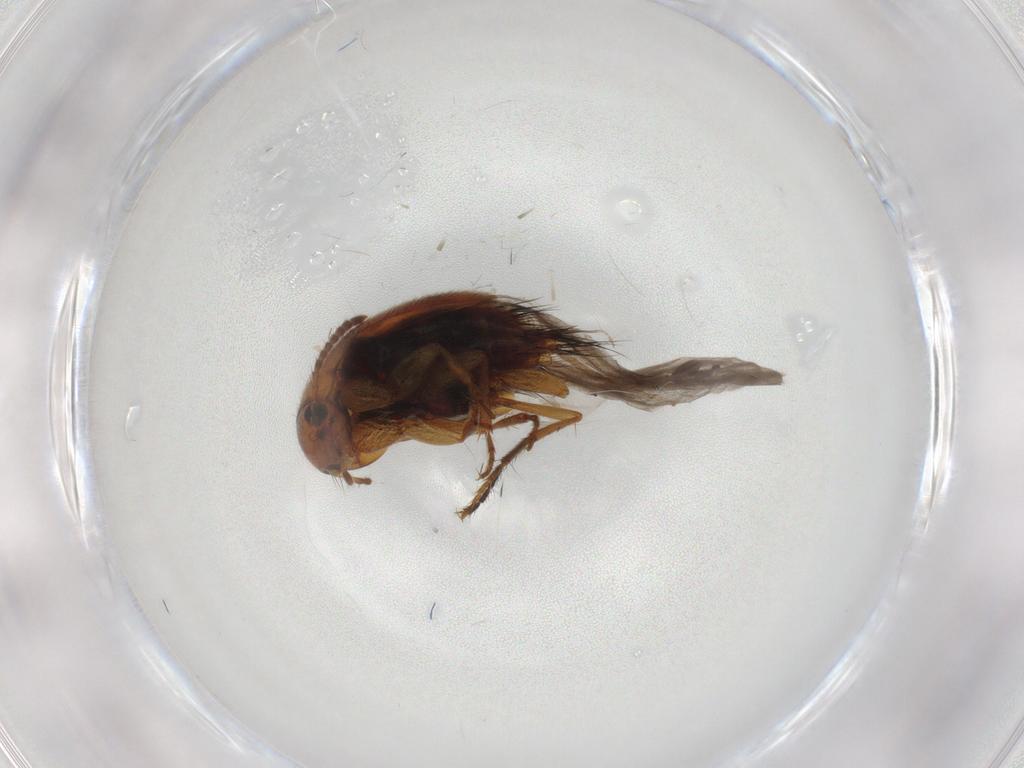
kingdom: Animalia
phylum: Arthropoda
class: Insecta
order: Coleoptera
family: Staphylinidae
